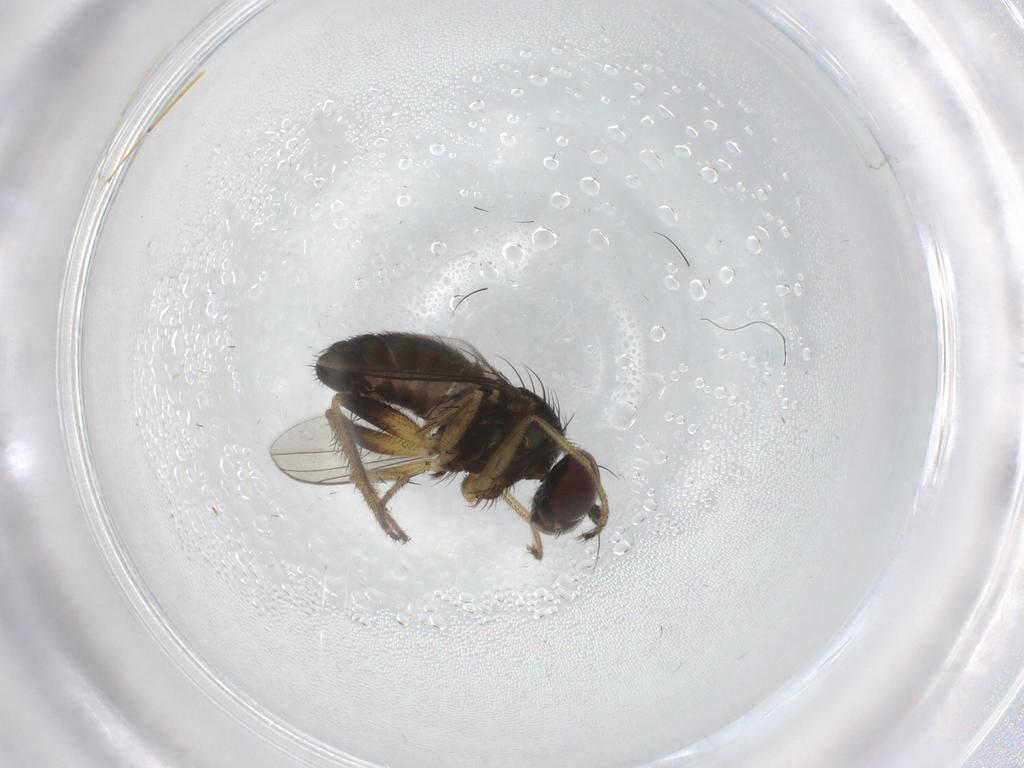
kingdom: Animalia
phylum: Arthropoda
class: Insecta
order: Diptera
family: Dolichopodidae
